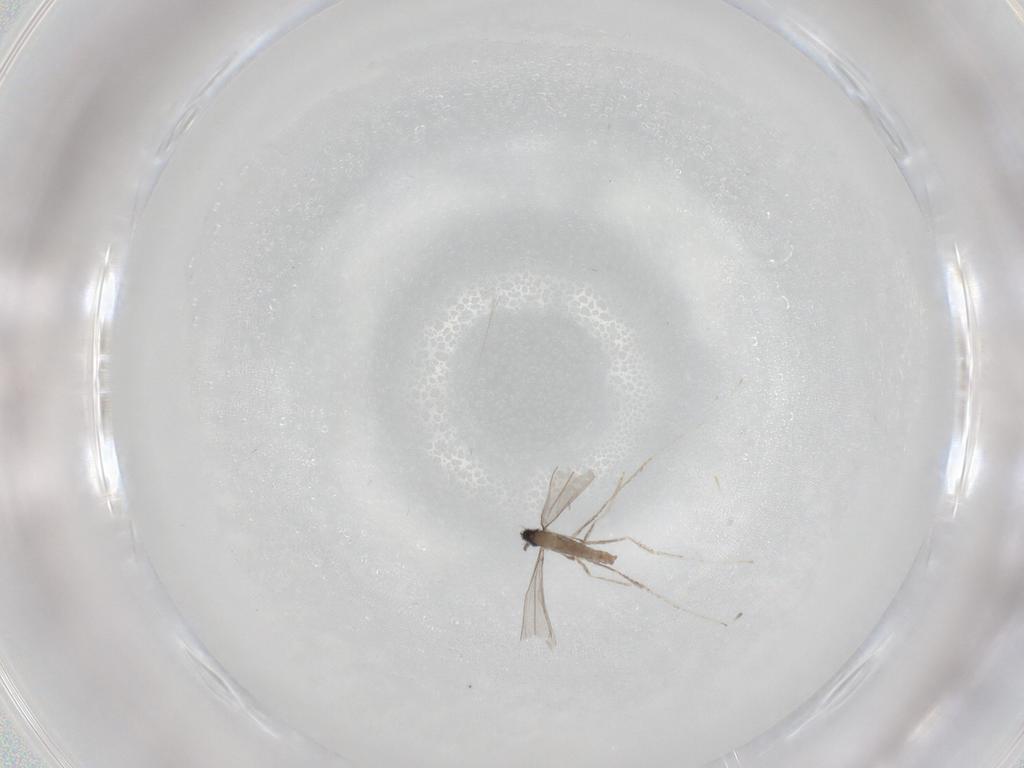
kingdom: Animalia
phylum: Arthropoda
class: Insecta
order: Diptera
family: Cecidomyiidae
